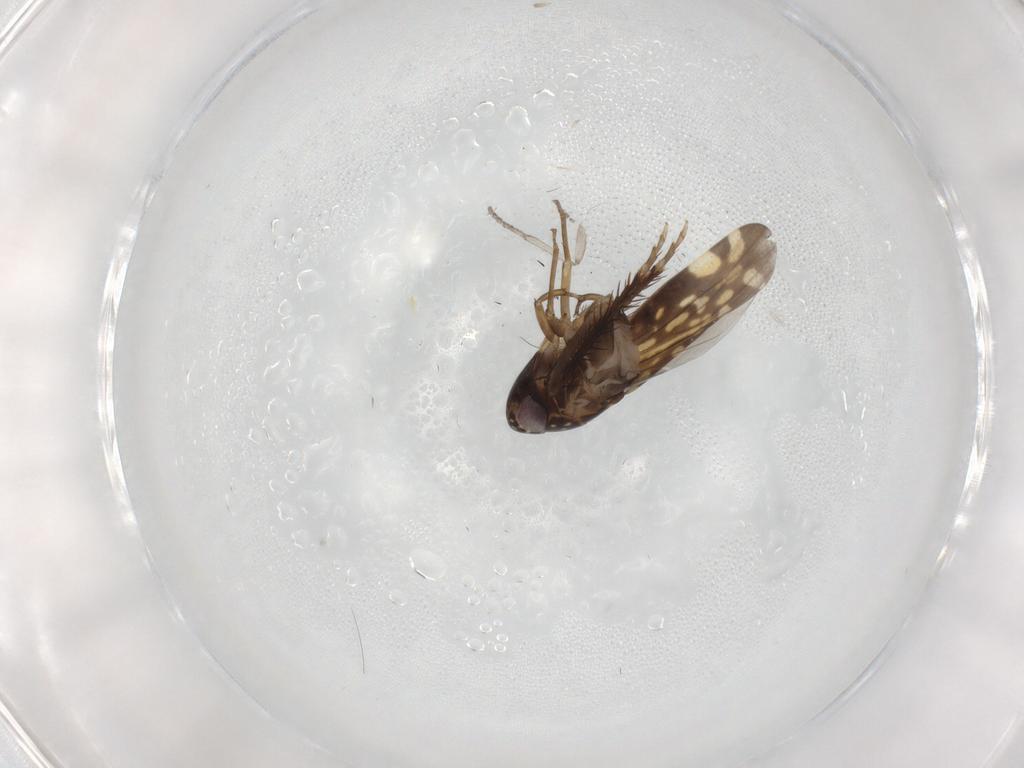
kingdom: Animalia
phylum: Arthropoda
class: Insecta
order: Hemiptera
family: Cicadellidae
